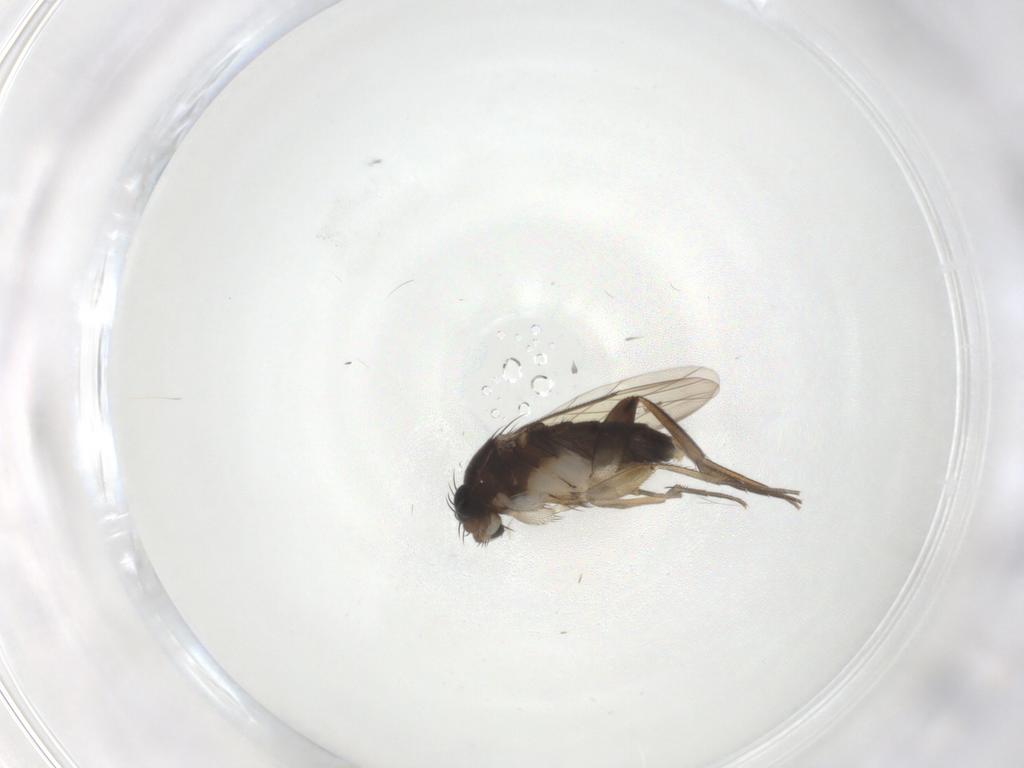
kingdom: Animalia
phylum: Arthropoda
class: Insecta
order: Diptera
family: Phoridae
